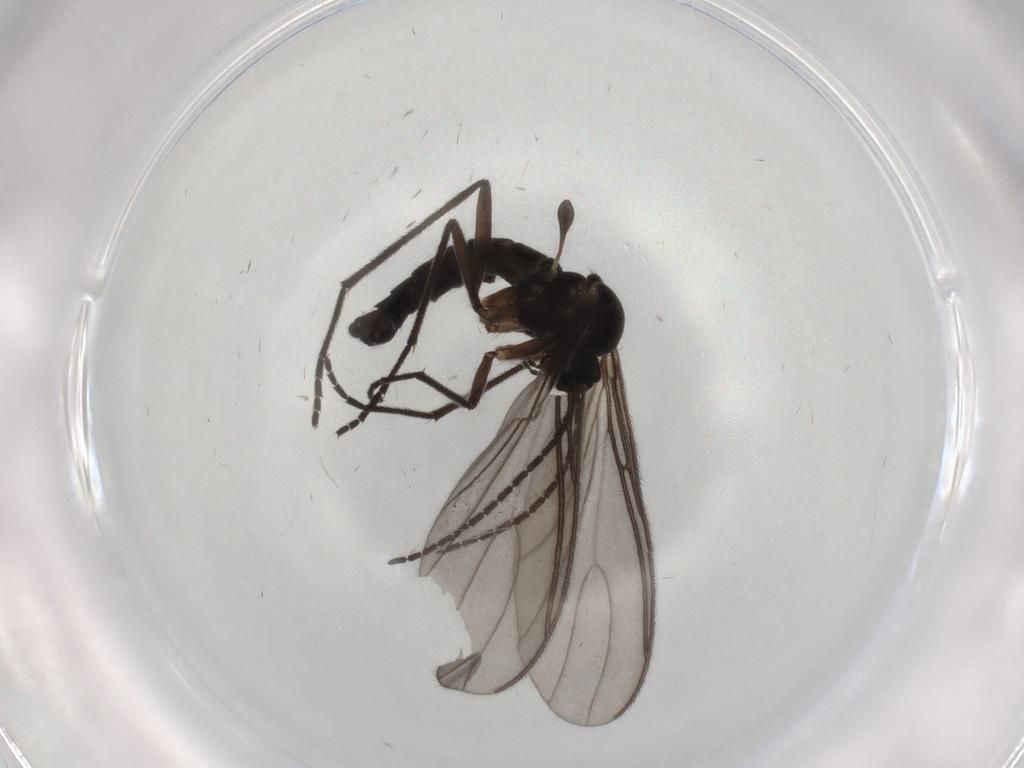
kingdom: Animalia
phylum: Arthropoda
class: Insecta
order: Diptera
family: Sciaridae
